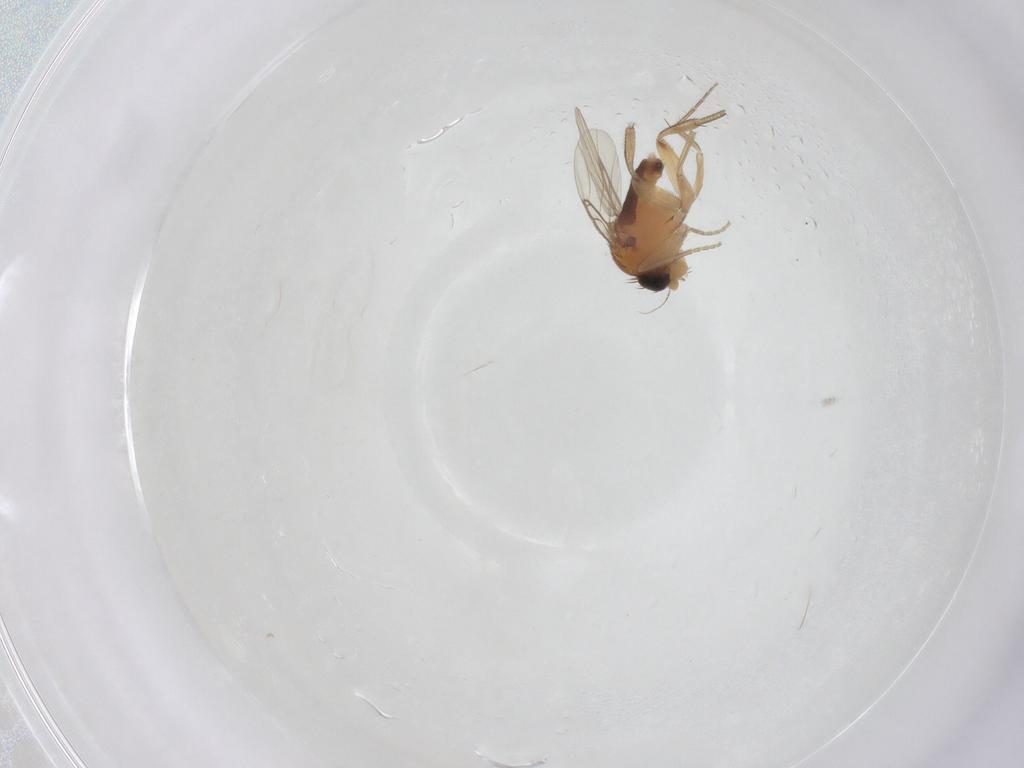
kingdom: Animalia
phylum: Arthropoda
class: Insecta
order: Diptera
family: Phoridae
